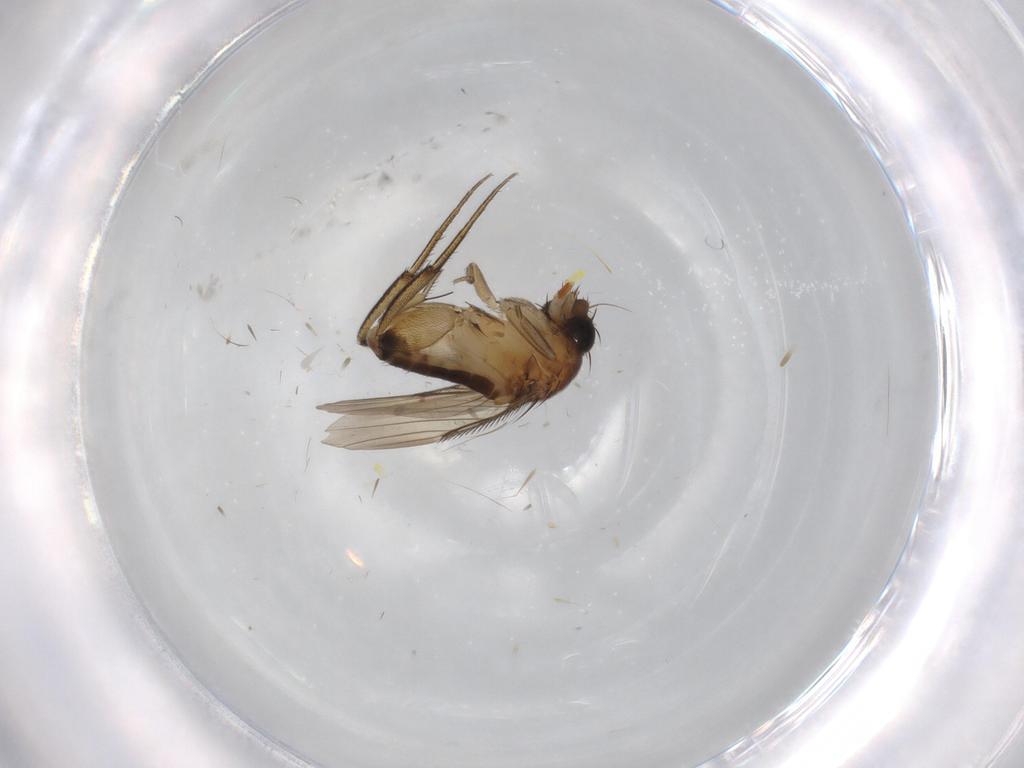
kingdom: Animalia
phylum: Arthropoda
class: Insecta
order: Diptera
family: Phoridae
